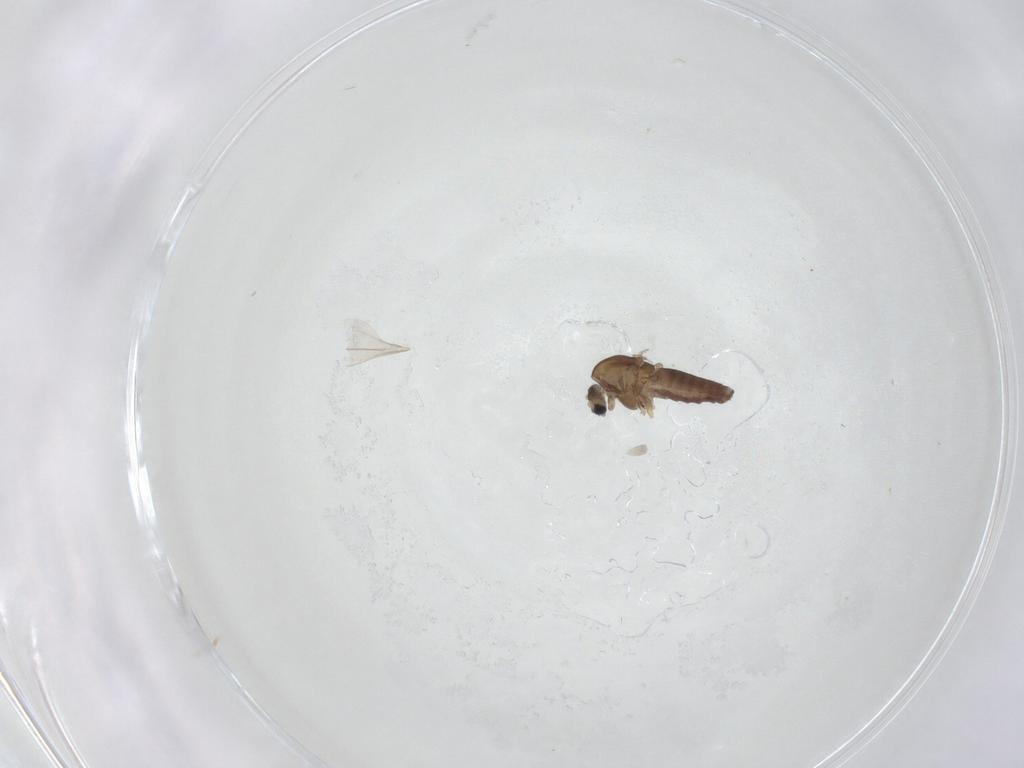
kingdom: Animalia
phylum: Arthropoda
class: Insecta
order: Diptera
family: Chironomidae
